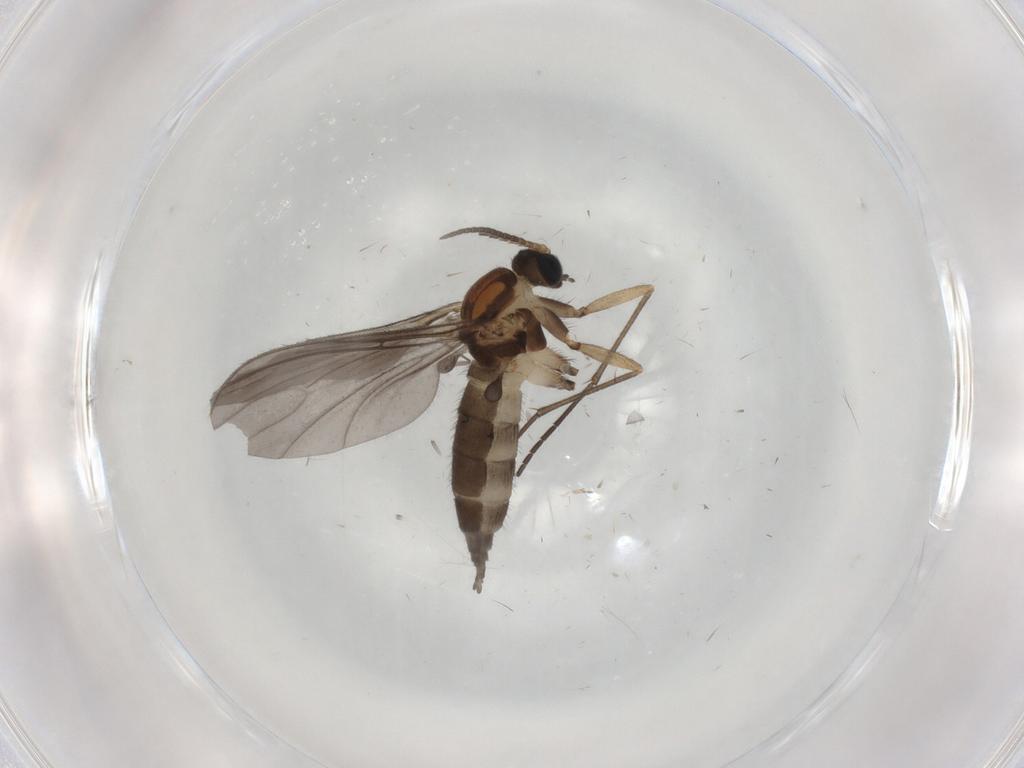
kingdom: Animalia
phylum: Arthropoda
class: Insecta
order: Diptera
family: Sciaridae
